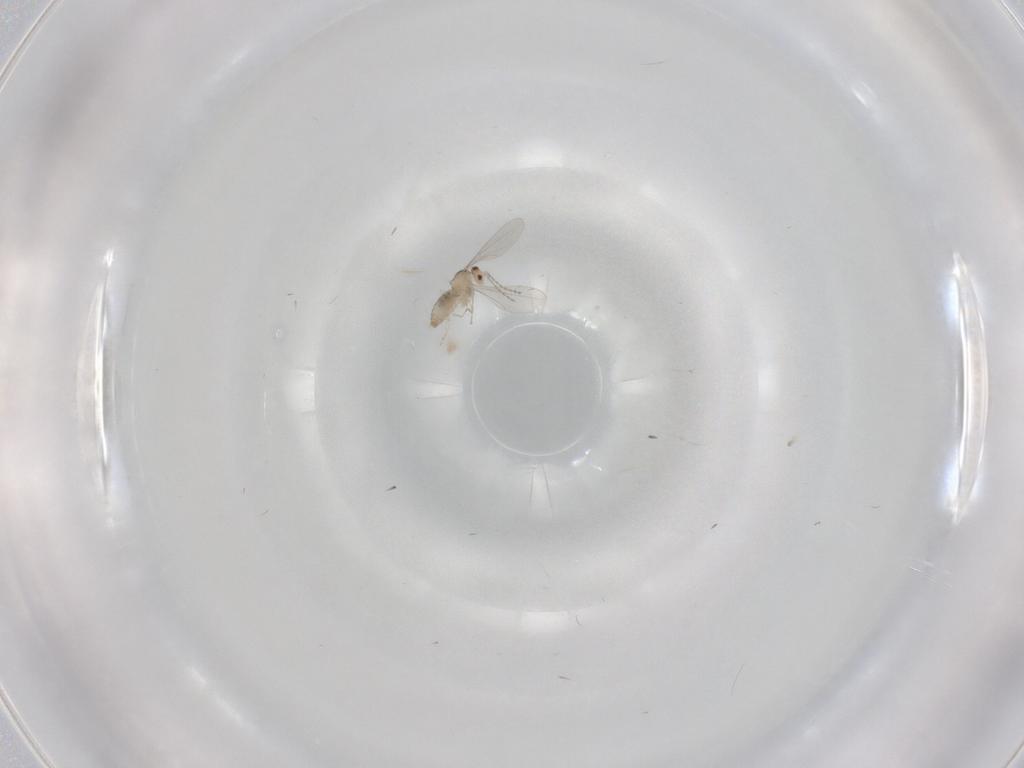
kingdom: Animalia
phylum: Arthropoda
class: Insecta
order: Diptera
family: Cecidomyiidae
